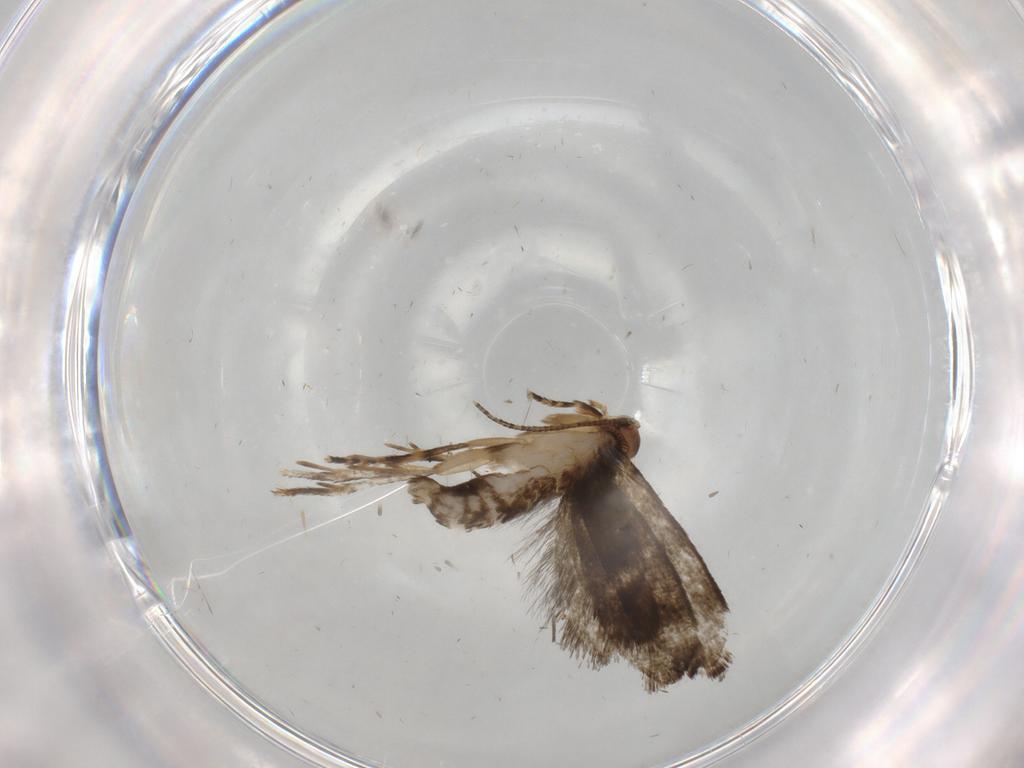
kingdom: Animalia
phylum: Arthropoda
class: Insecta
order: Lepidoptera
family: Tineidae
